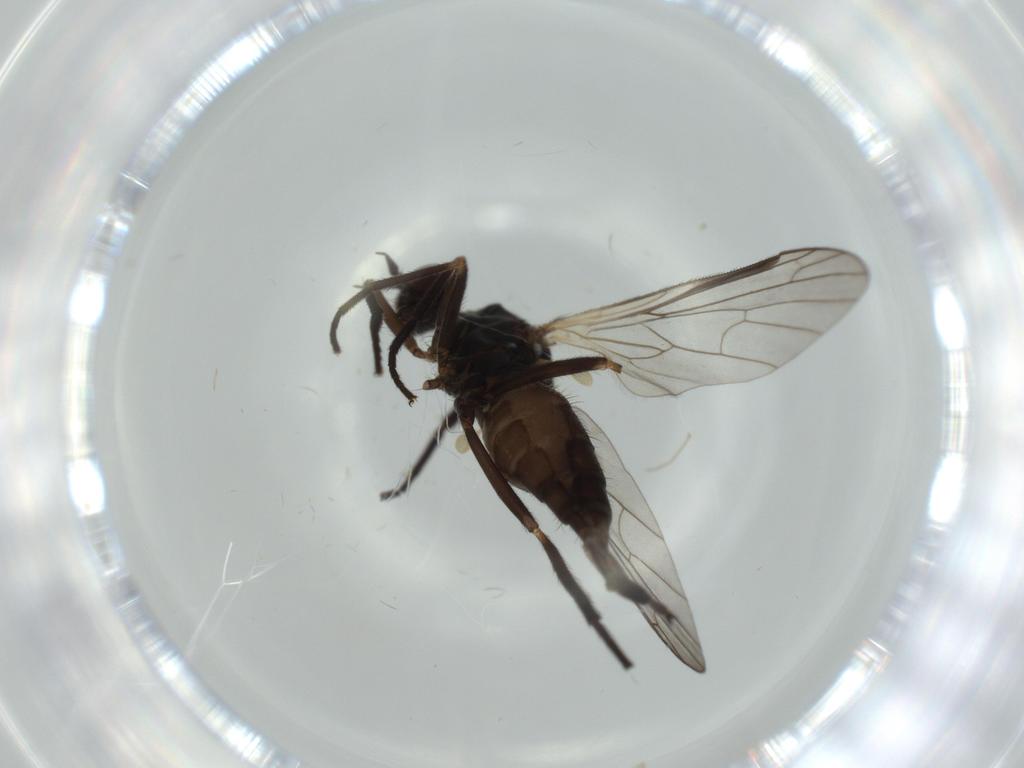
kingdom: Animalia
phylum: Arthropoda
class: Insecta
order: Diptera
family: Empididae
